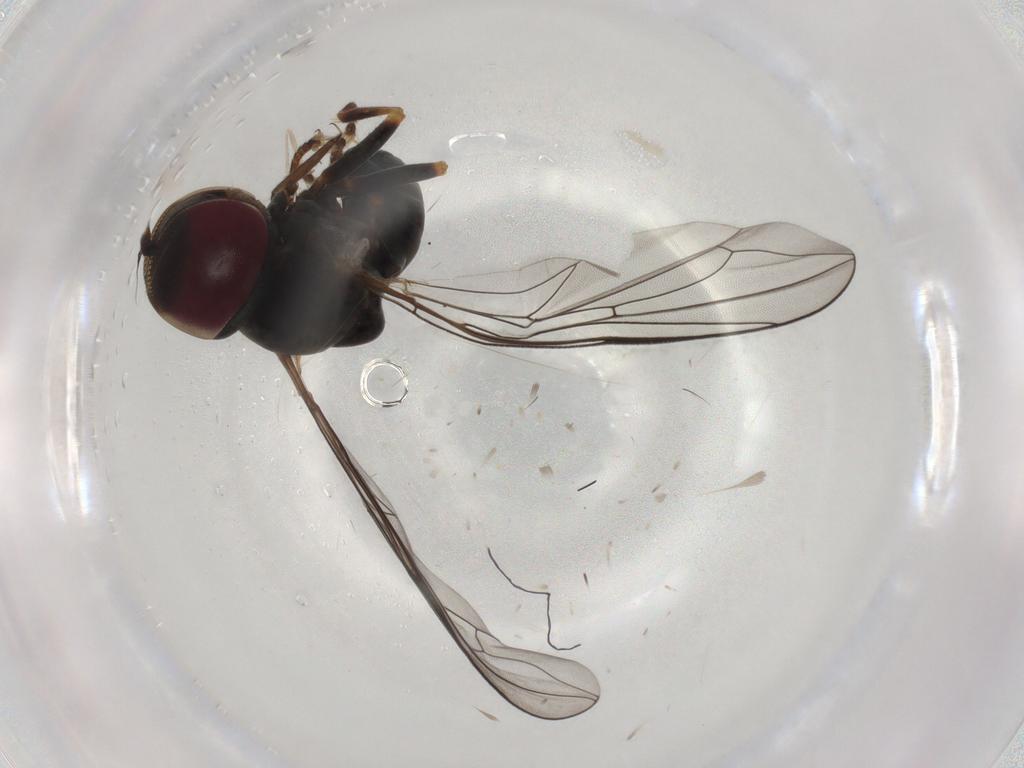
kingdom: Animalia
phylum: Arthropoda
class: Insecta
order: Diptera
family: Pipunculidae
